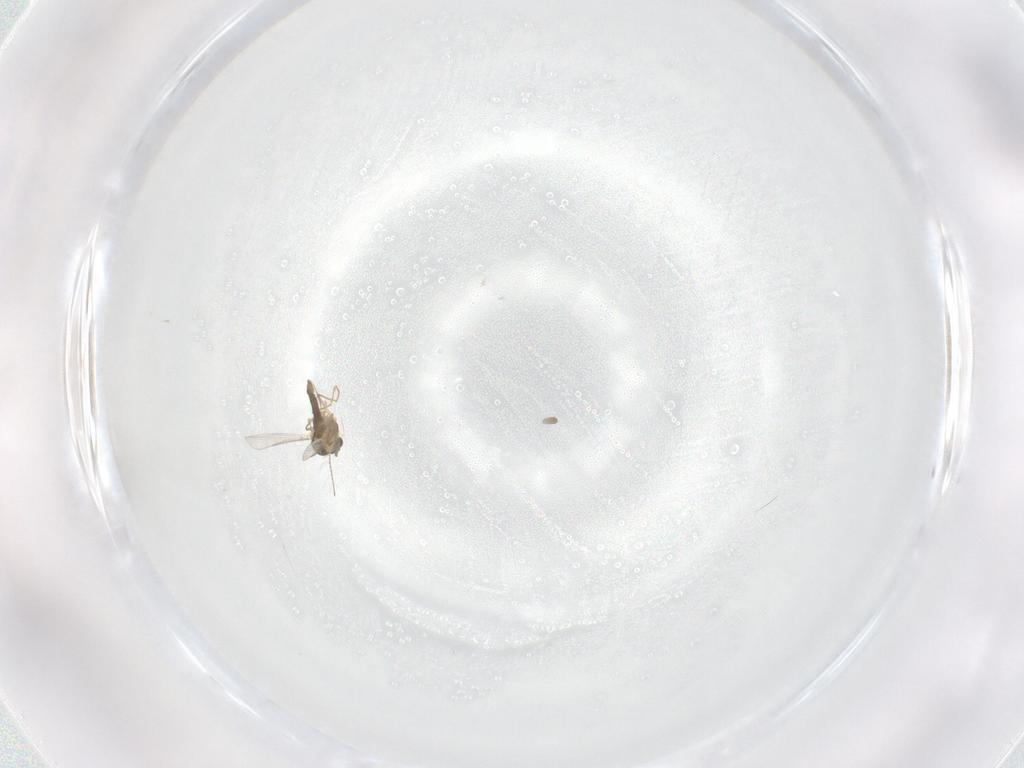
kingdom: Animalia
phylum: Arthropoda
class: Insecta
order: Diptera
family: Chironomidae
